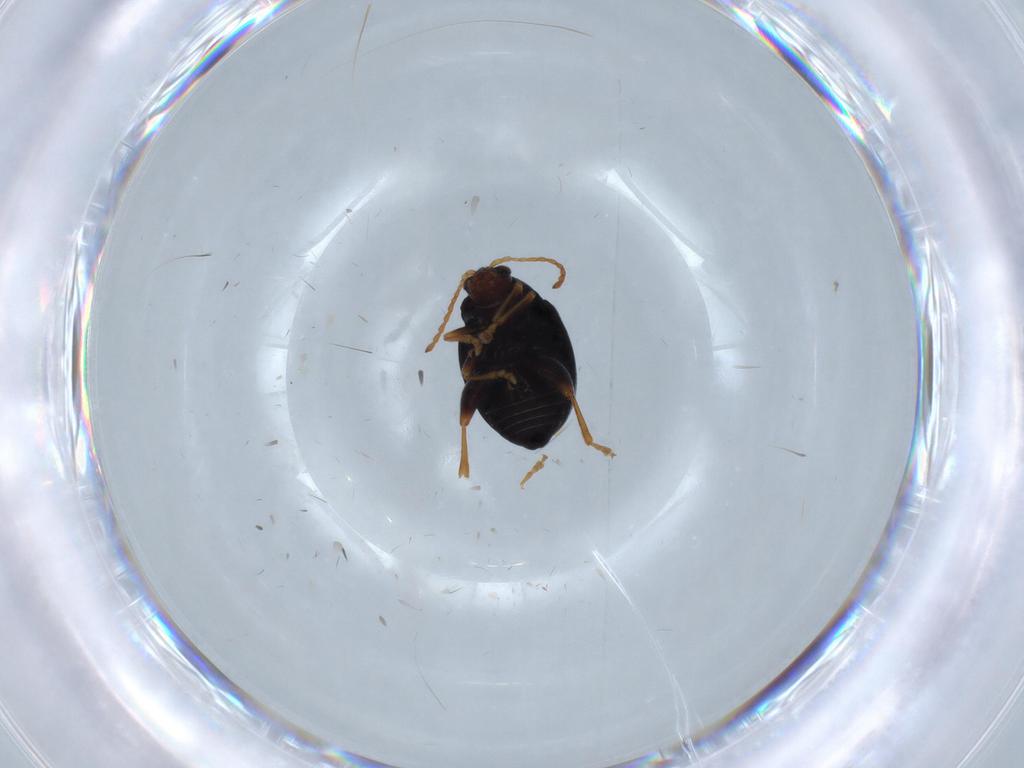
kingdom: Animalia
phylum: Arthropoda
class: Insecta
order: Coleoptera
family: Chrysomelidae
